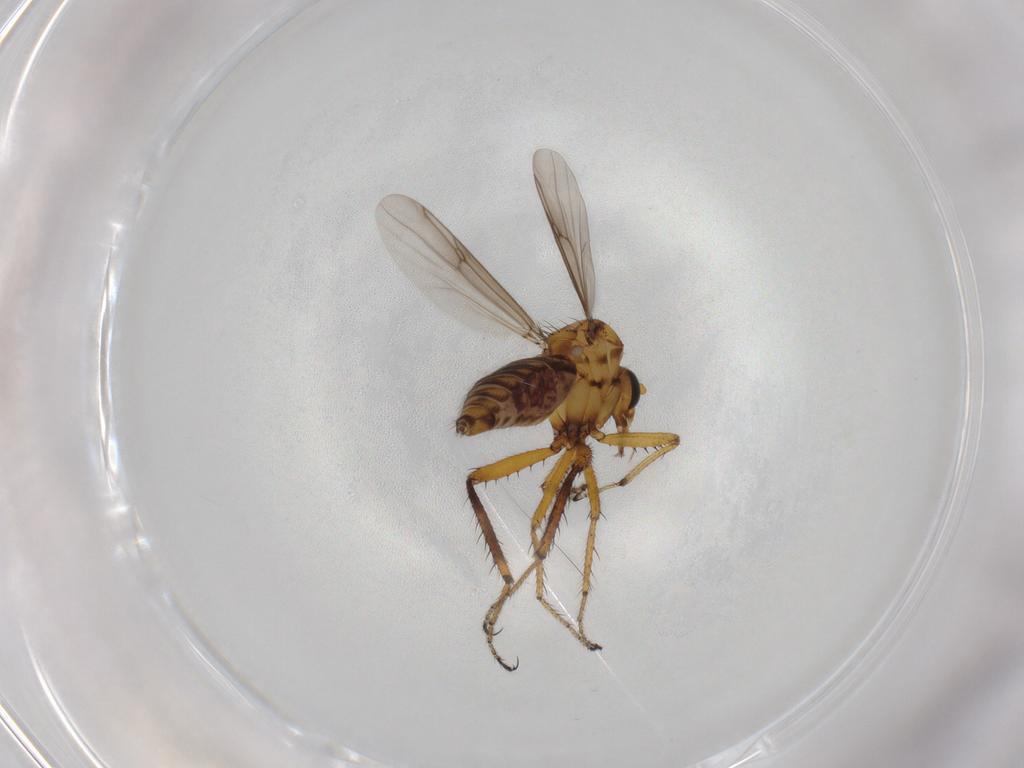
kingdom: Animalia
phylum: Arthropoda
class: Insecta
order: Diptera
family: Ceratopogonidae
